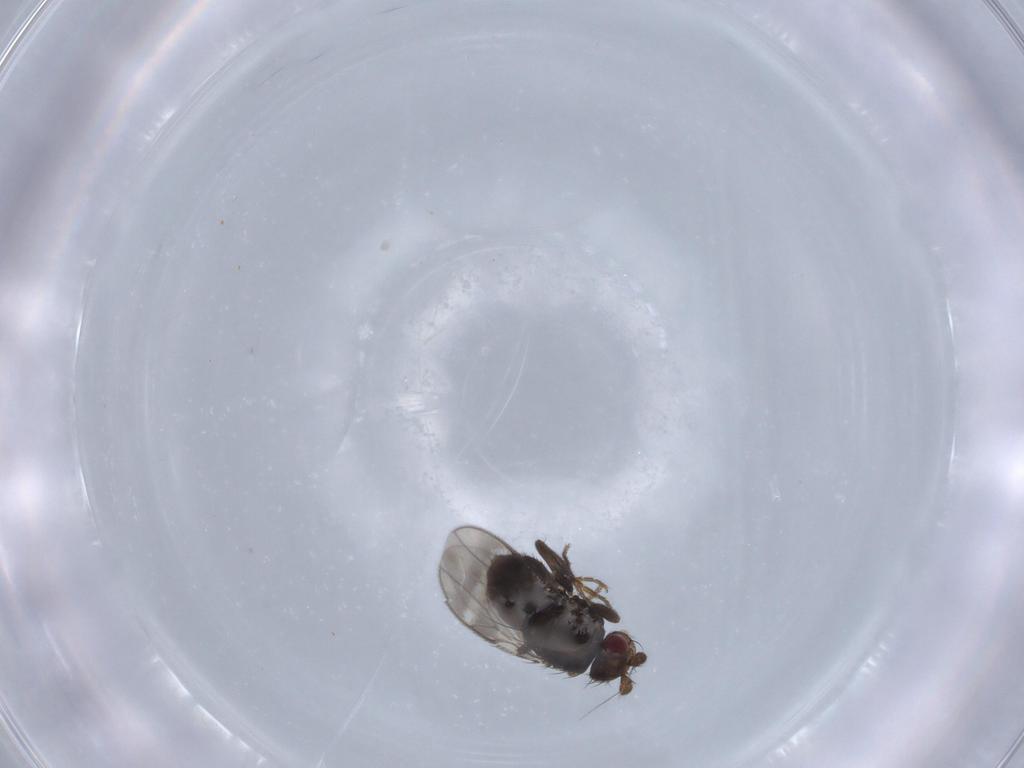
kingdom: Animalia
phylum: Arthropoda
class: Insecta
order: Diptera
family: Sphaeroceridae
